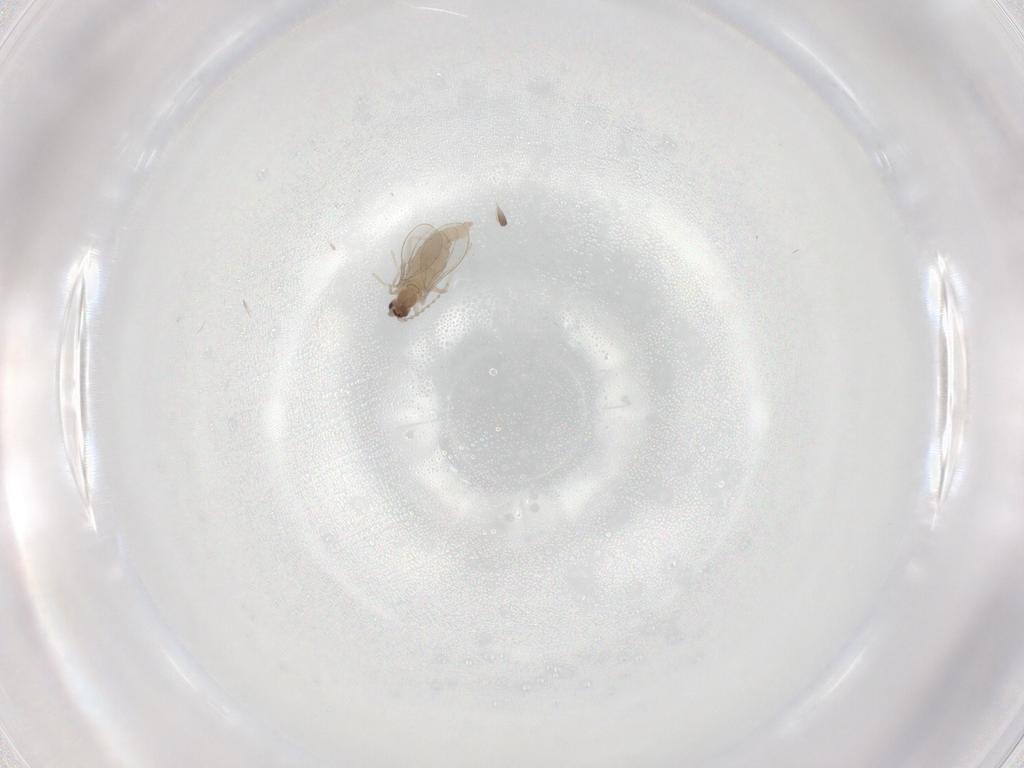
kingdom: Animalia
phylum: Arthropoda
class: Insecta
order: Diptera
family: Cecidomyiidae
